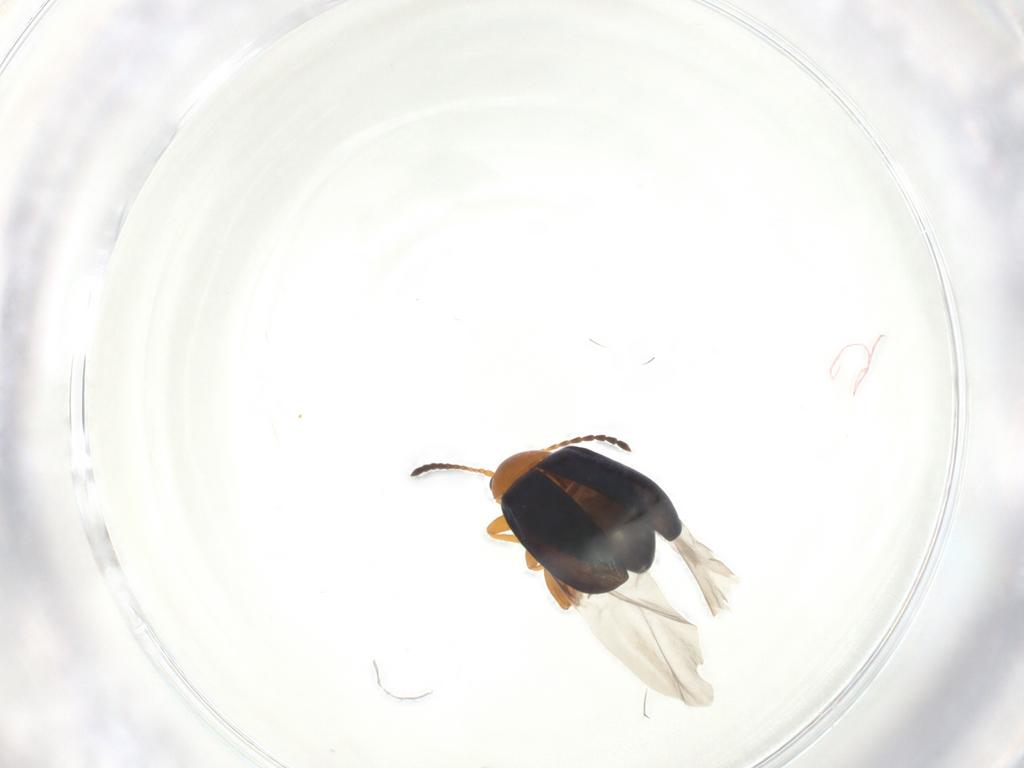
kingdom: Animalia
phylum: Arthropoda
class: Insecta
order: Coleoptera
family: Chrysomelidae
